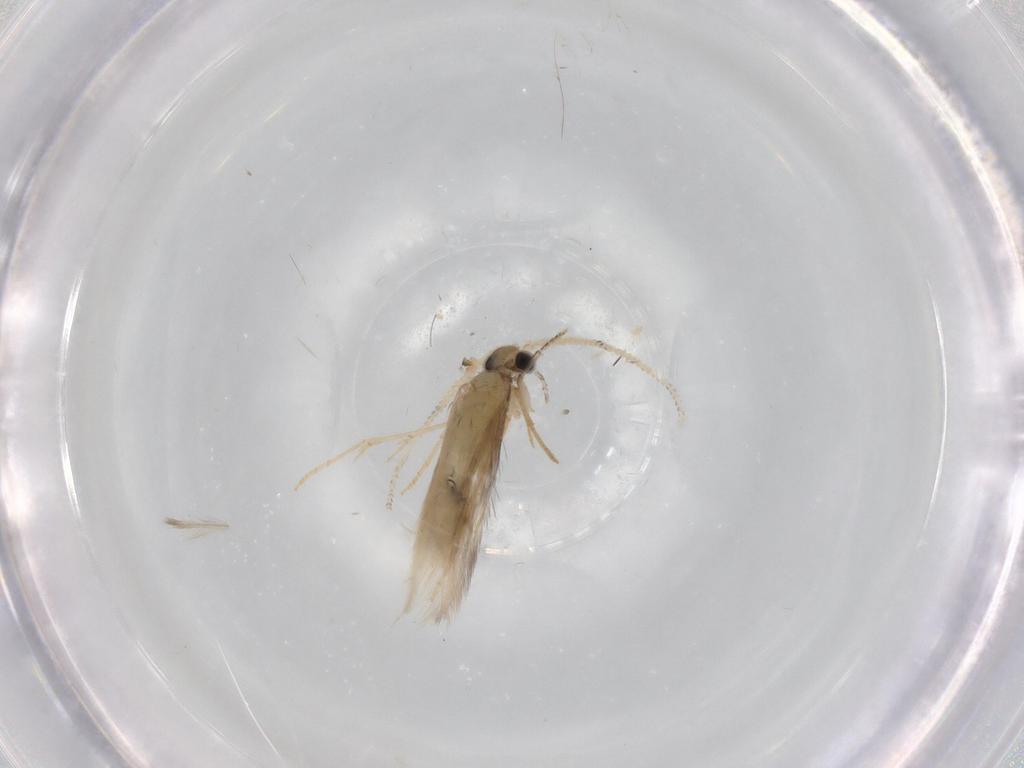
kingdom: Animalia
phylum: Arthropoda
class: Insecta
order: Trichoptera
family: Hydroptilidae
